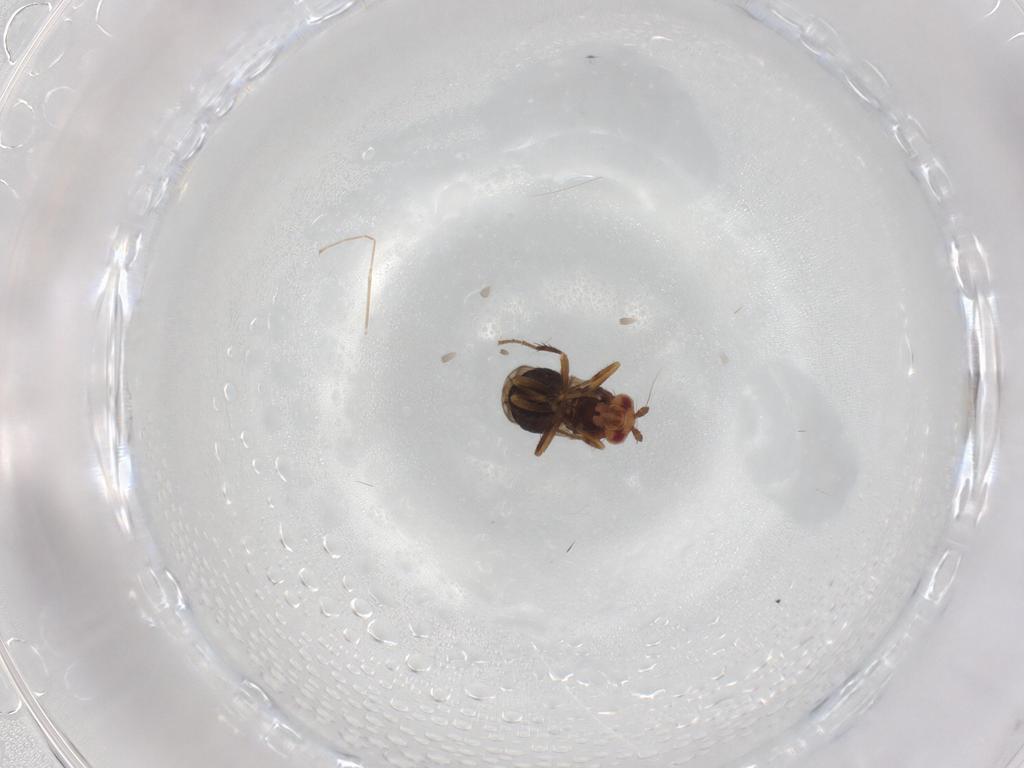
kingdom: Animalia
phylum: Arthropoda
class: Insecta
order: Diptera
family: Sphaeroceridae
